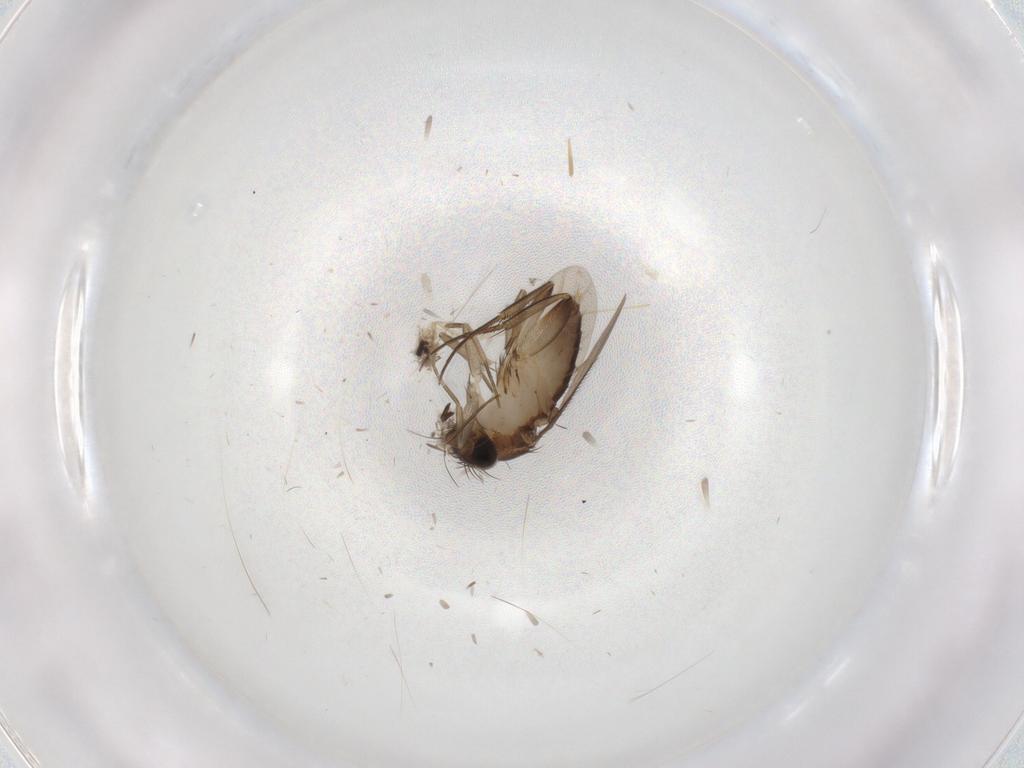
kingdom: Animalia
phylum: Arthropoda
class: Insecta
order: Diptera
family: Phoridae
